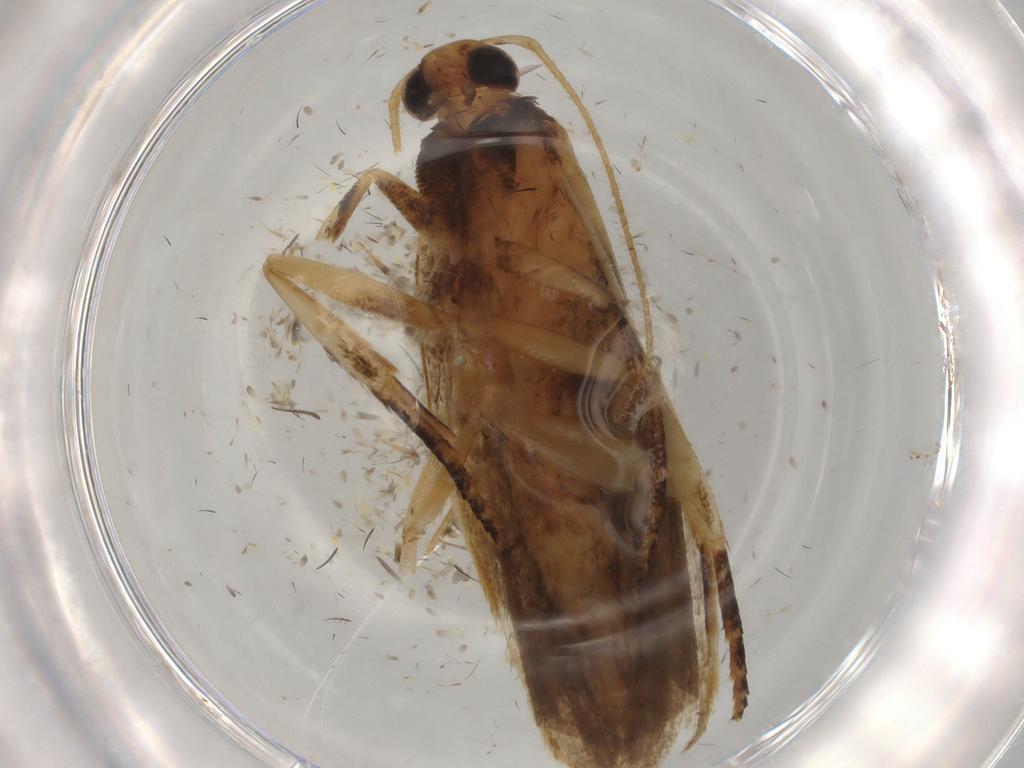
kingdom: Animalia
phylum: Arthropoda
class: Insecta
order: Lepidoptera
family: Gelechiidae
